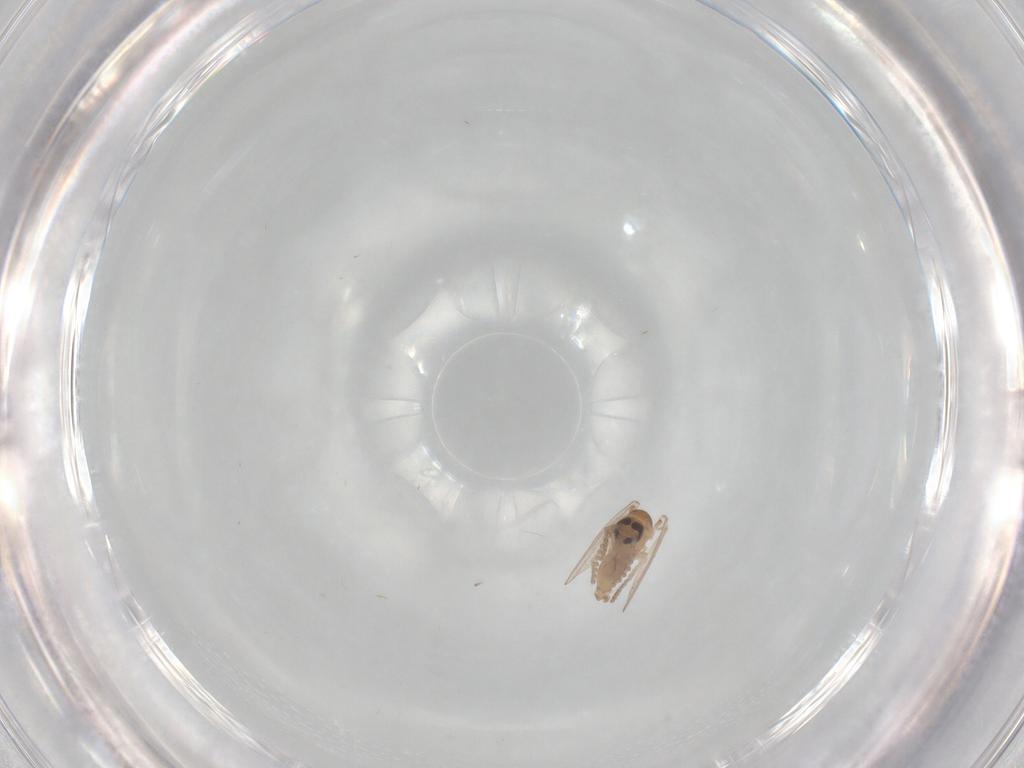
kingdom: Animalia
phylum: Arthropoda
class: Insecta
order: Diptera
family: Psychodidae
